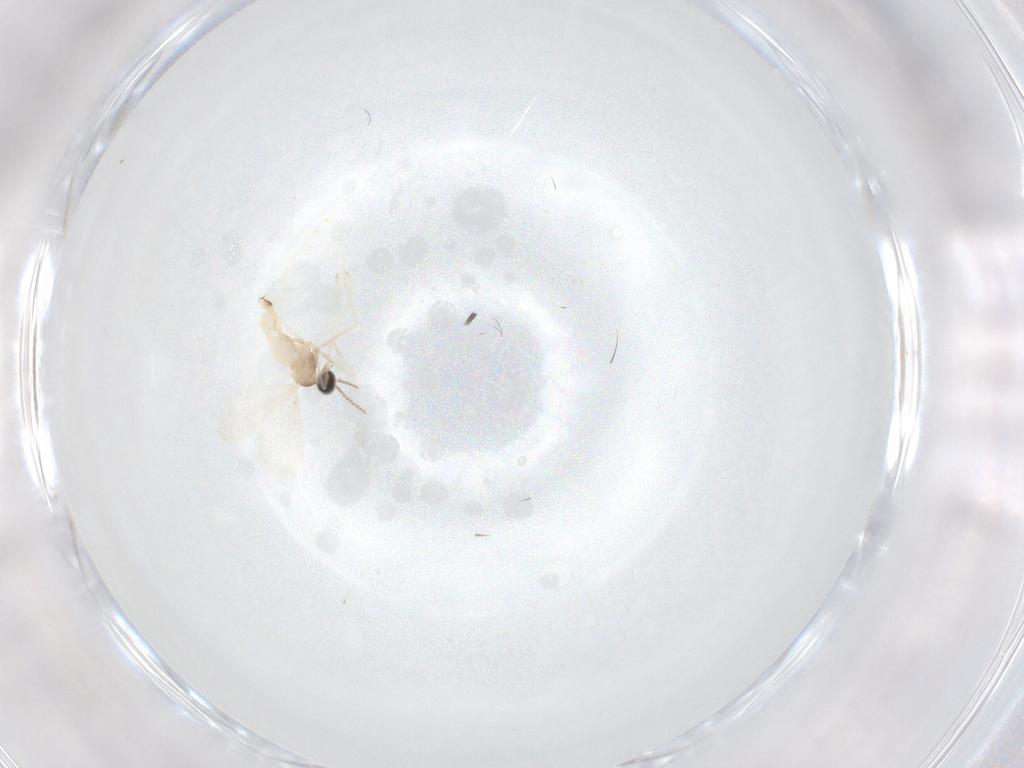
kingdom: Animalia
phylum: Arthropoda
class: Insecta
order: Diptera
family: Cecidomyiidae
